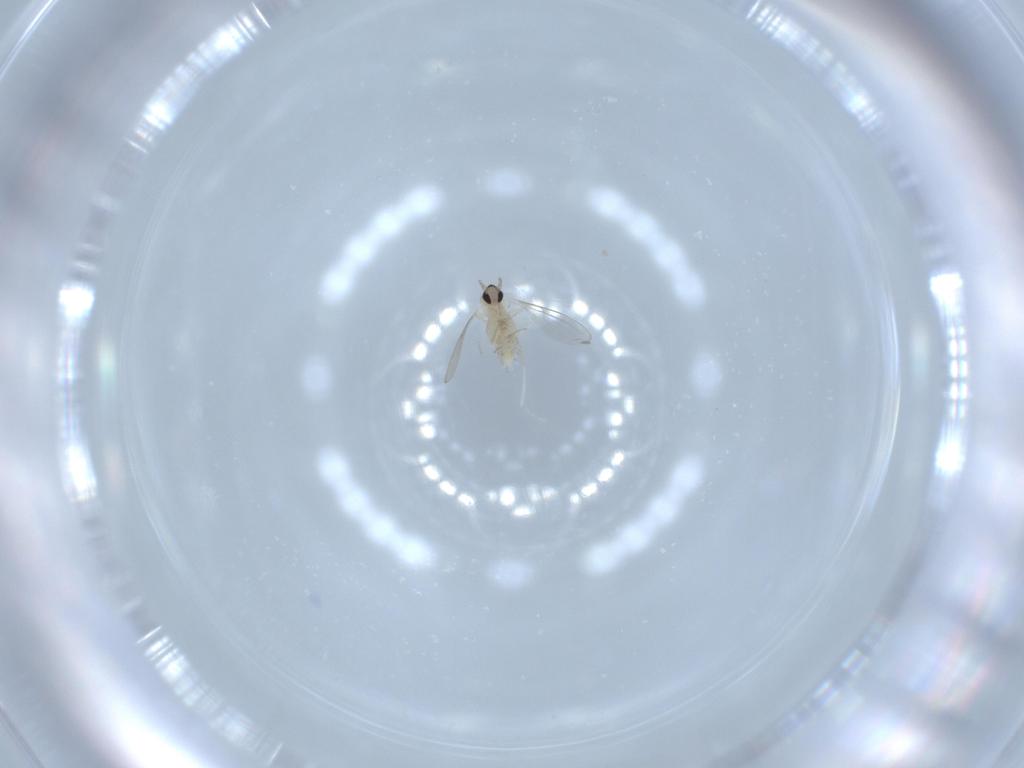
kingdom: Animalia
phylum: Arthropoda
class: Insecta
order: Diptera
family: Cecidomyiidae
